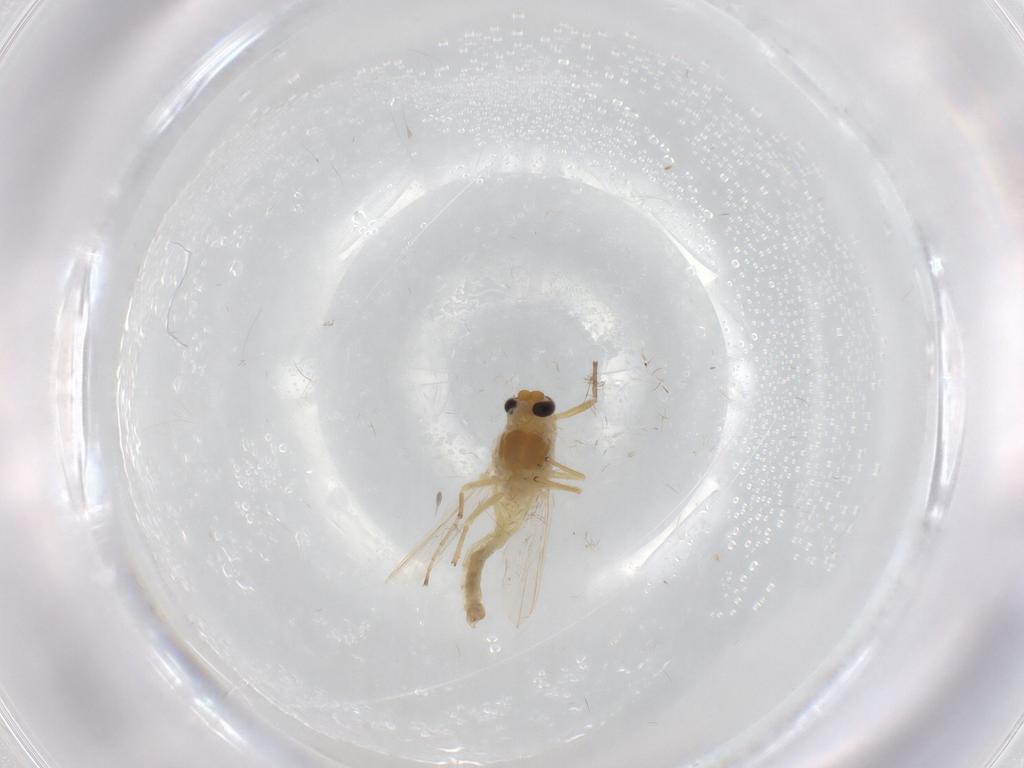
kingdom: Animalia
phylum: Arthropoda
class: Insecta
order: Diptera
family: Chironomidae
